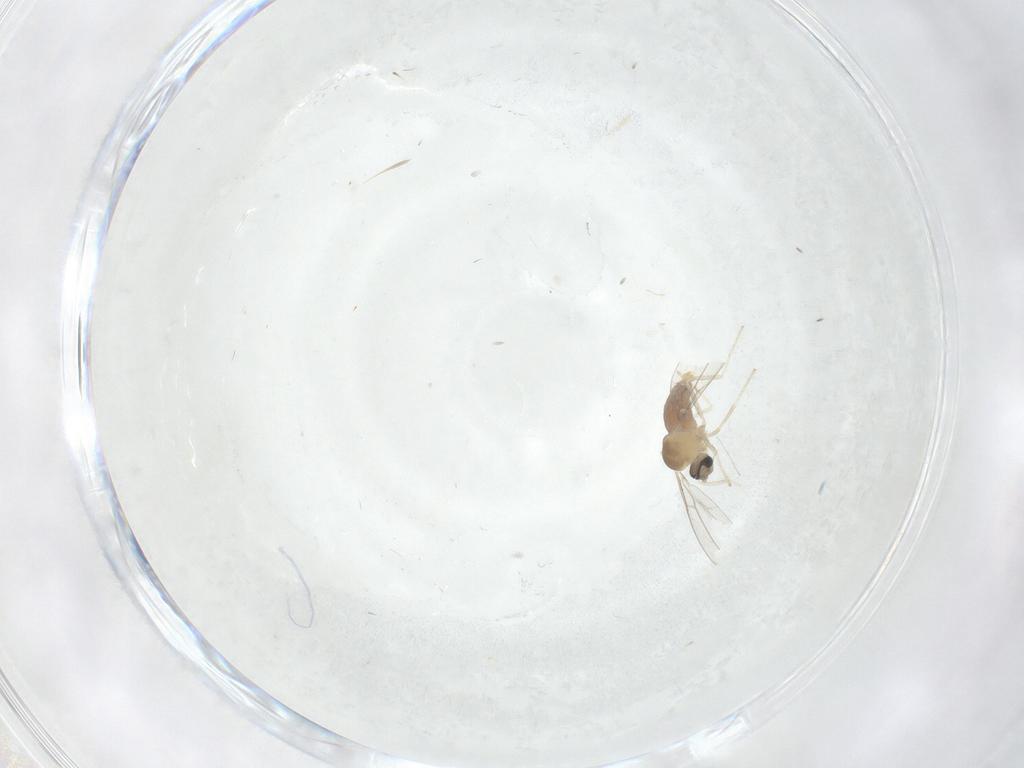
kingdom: Animalia
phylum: Arthropoda
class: Insecta
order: Diptera
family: Cecidomyiidae
